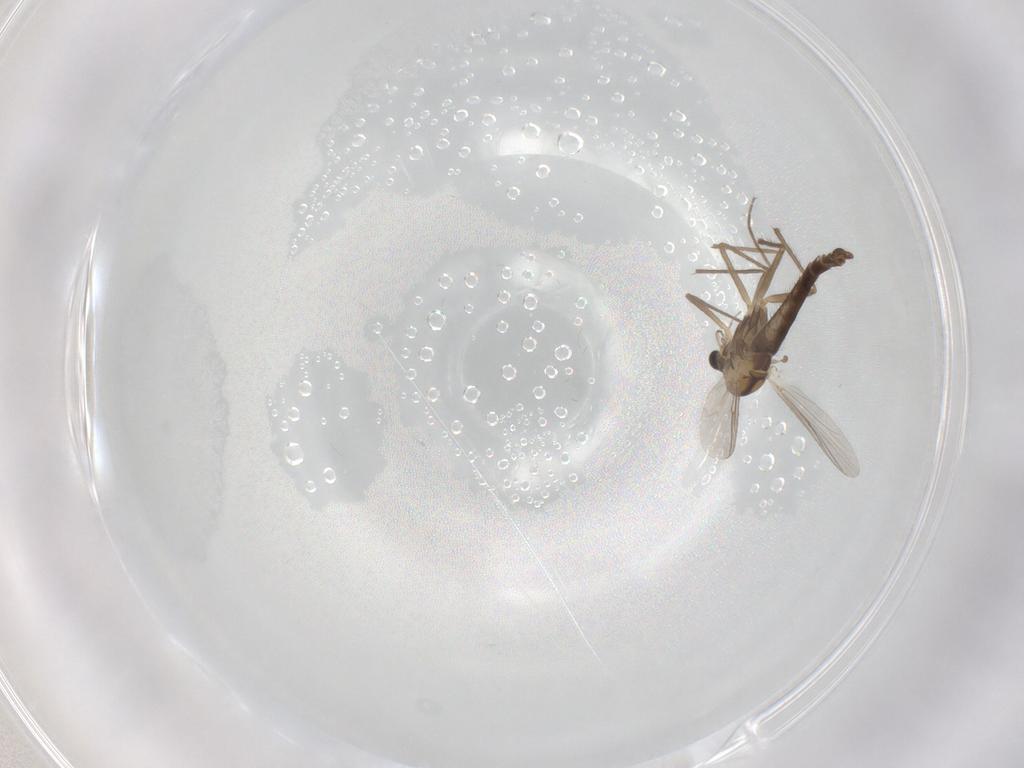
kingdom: Animalia
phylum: Arthropoda
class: Insecta
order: Diptera
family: Chironomidae
